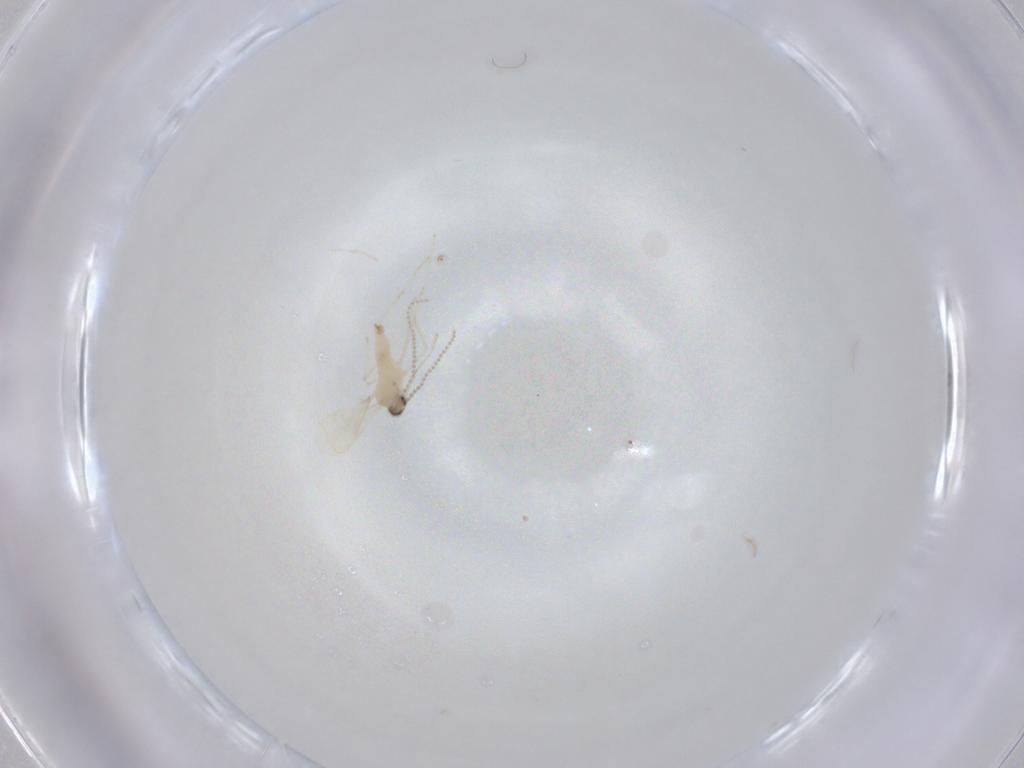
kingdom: Animalia
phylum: Arthropoda
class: Insecta
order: Diptera
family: Cecidomyiidae
